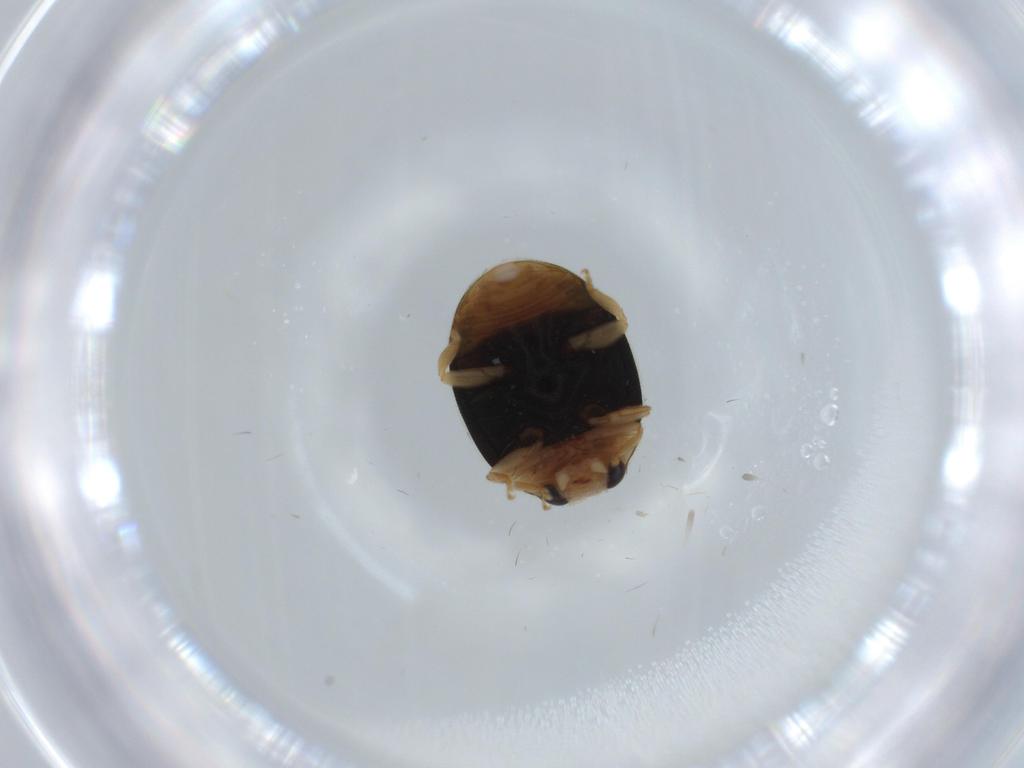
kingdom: Animalia
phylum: Arthropoda
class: Insecta
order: Coleoptera
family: Coccinellidae
